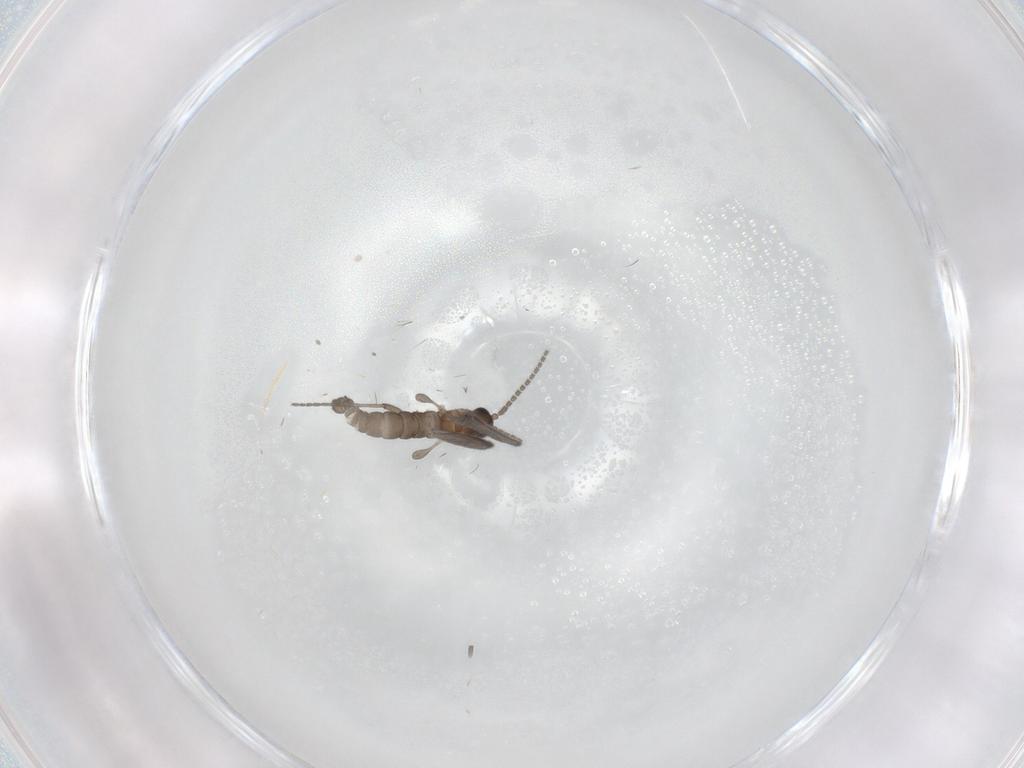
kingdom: Animalia
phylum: Arthropoda
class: Insecta
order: Diptera
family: Sciaridae
